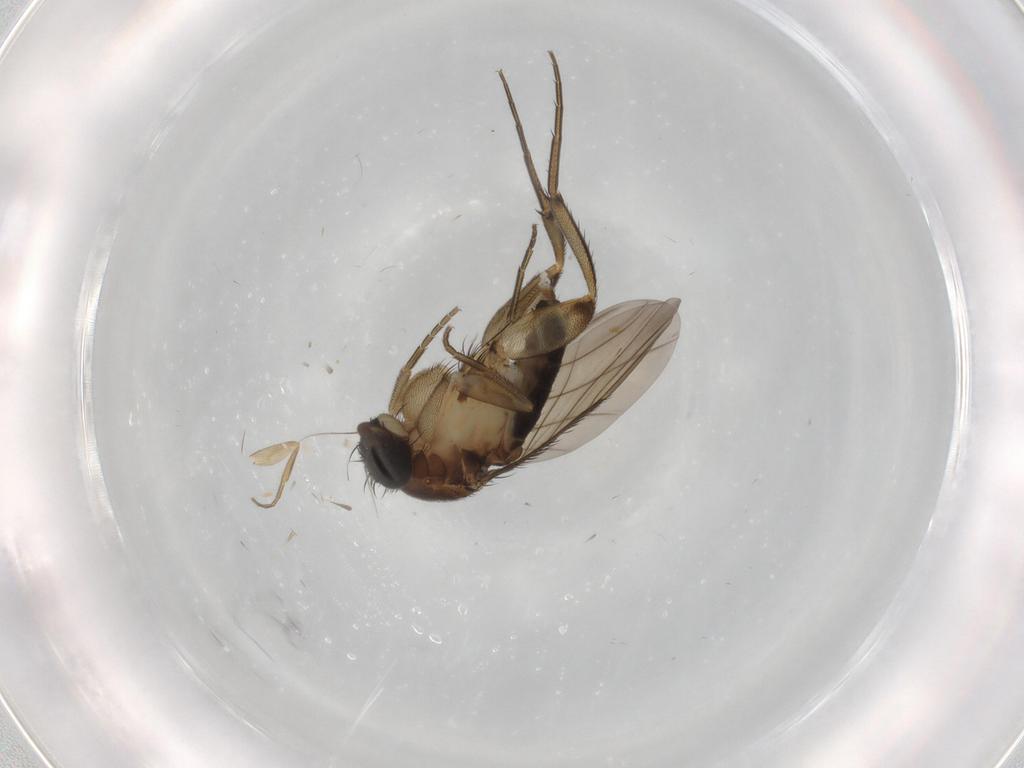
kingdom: Animalia
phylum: Arthropoda
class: Insecta
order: Diptera
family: Phoridae
